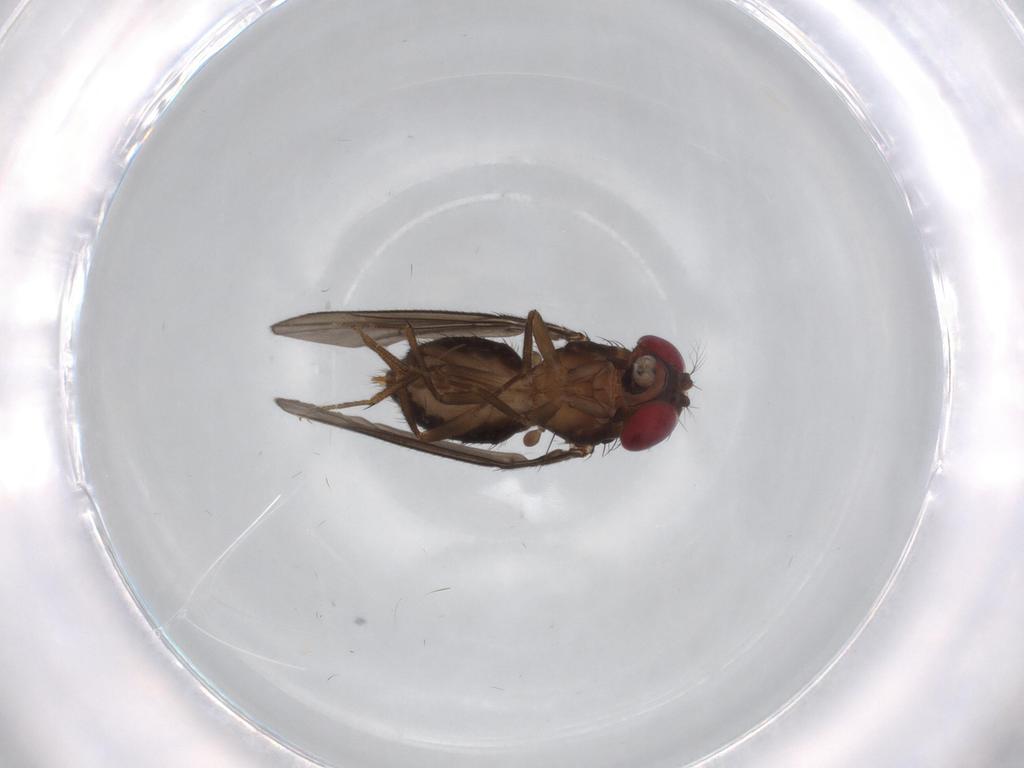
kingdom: Animalia
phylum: Arthropoda
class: Insecta
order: Diptera
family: Drosophilidae
